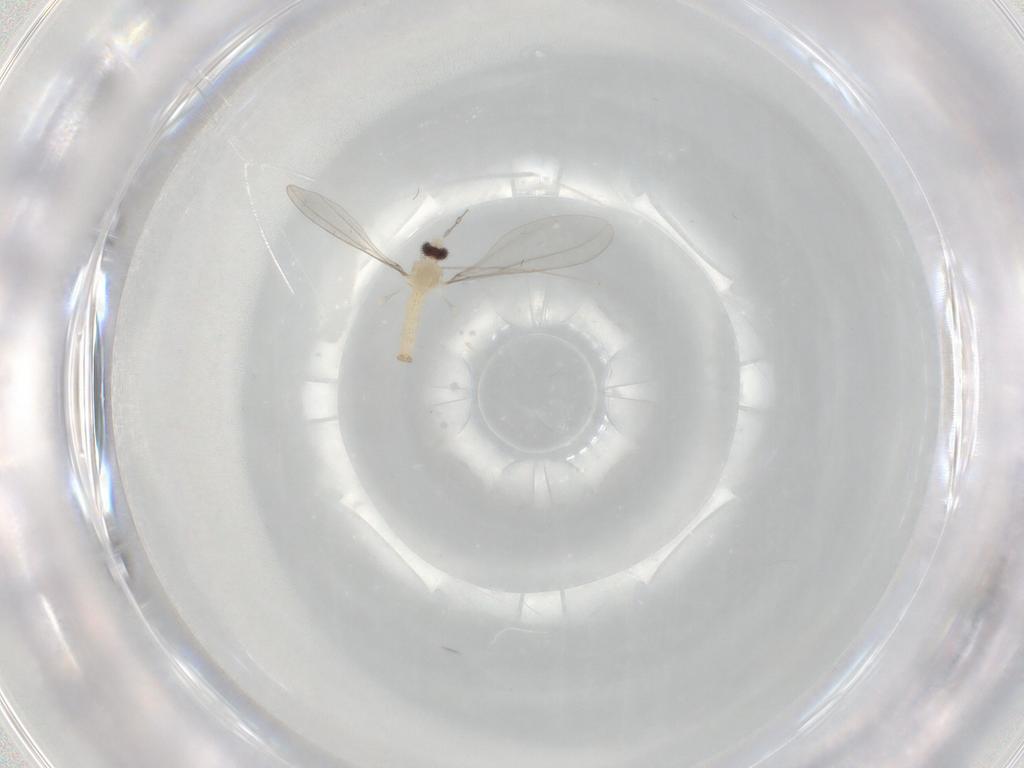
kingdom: Animalia
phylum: Arthropoda
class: Insecta
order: Diptera
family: Cecidomyiidae
